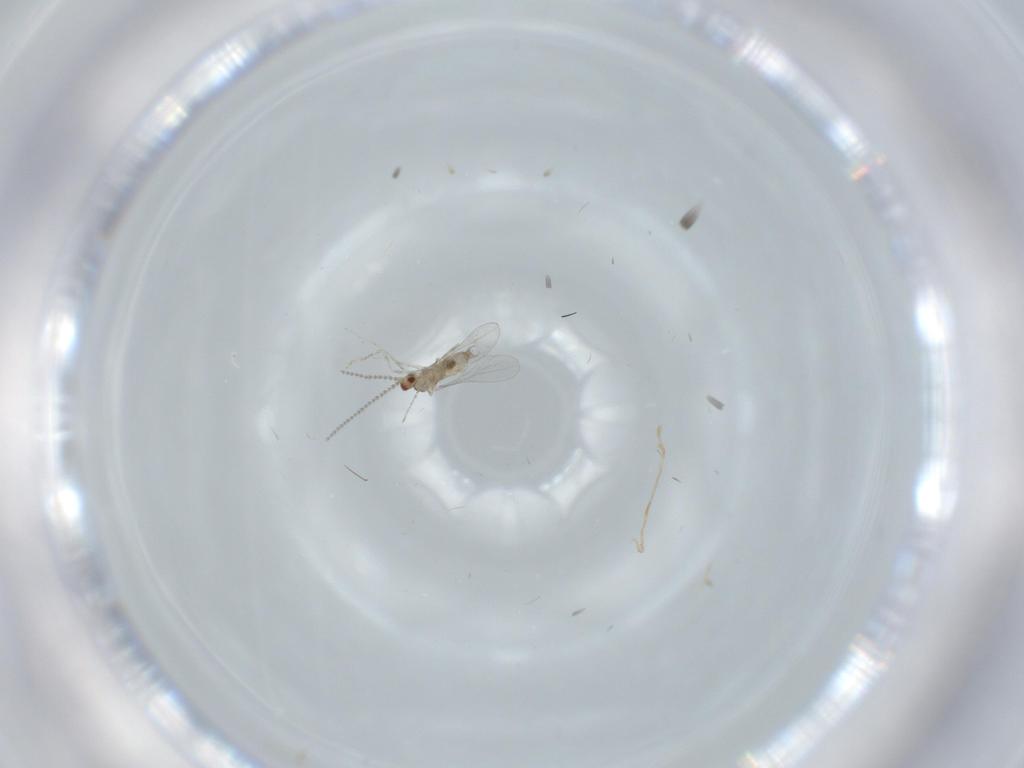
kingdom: Animalia
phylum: Arthropoda
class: Insecta
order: Diptera
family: Cecidomyiidae
